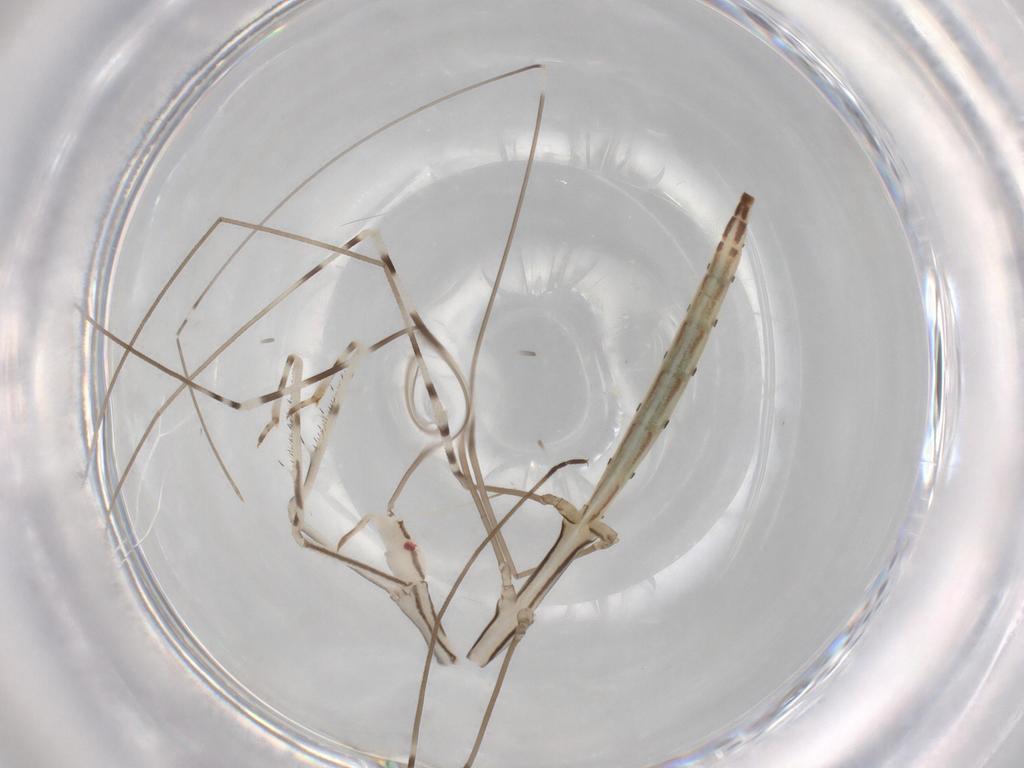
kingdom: Animalia
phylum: Arthropoda
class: Insecta
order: Hemiptera
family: Reduviidae
